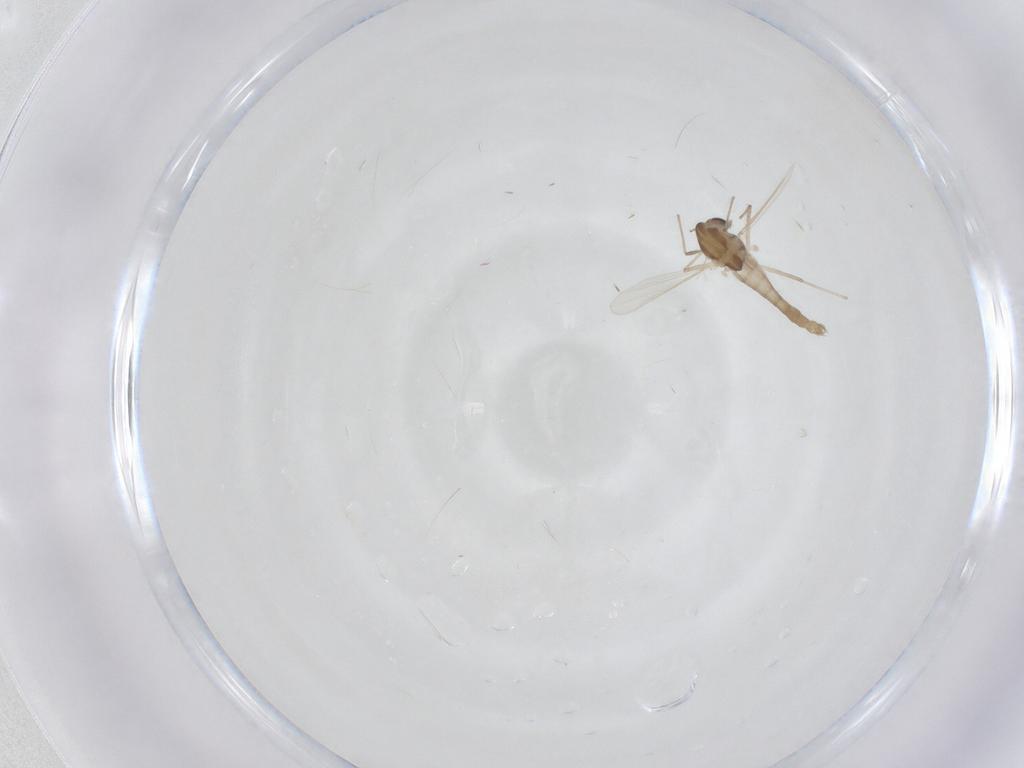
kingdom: Animalia
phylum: Arthropoda
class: Insecta
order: Diptera
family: Chironomidae
